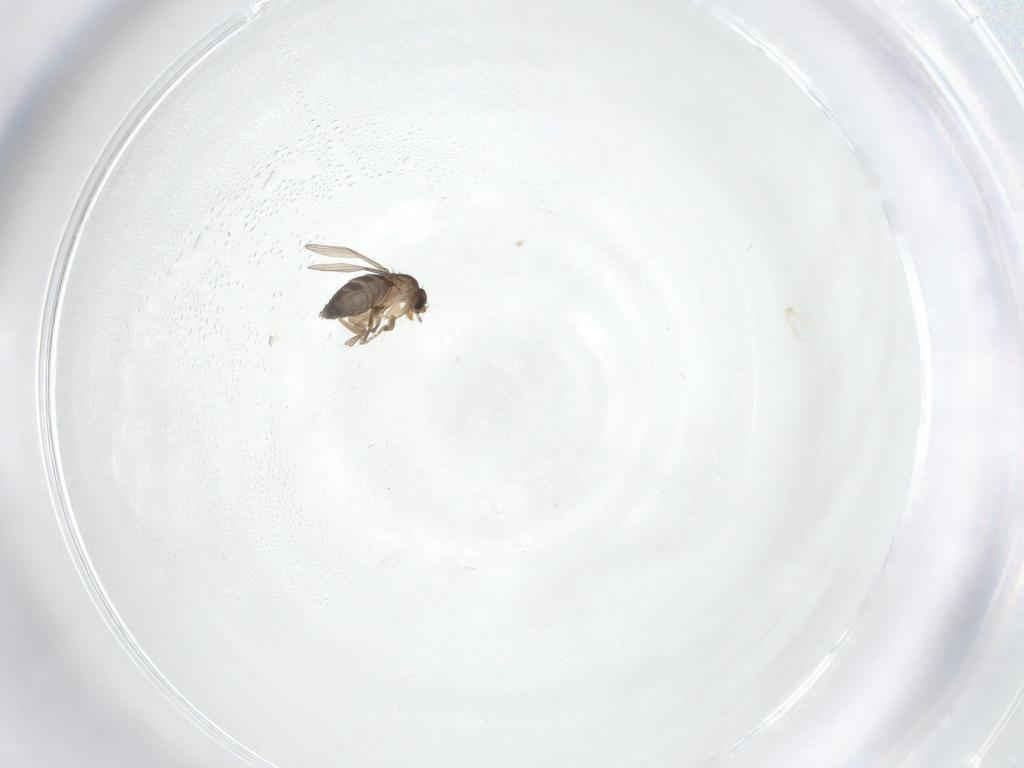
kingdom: Animalia
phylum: Arthropoda
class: Insecta
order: Diptera
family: Phoridae
